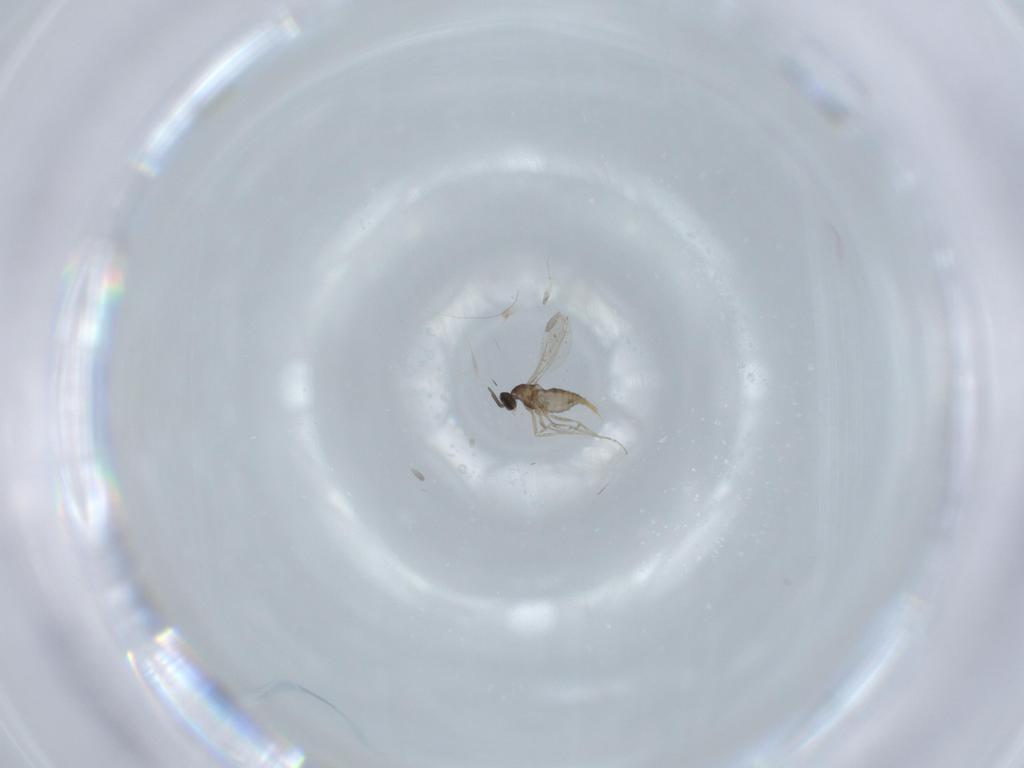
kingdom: Animalia
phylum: Arthropoda
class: Insecta
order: Diptera
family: Cecidomyiidae
